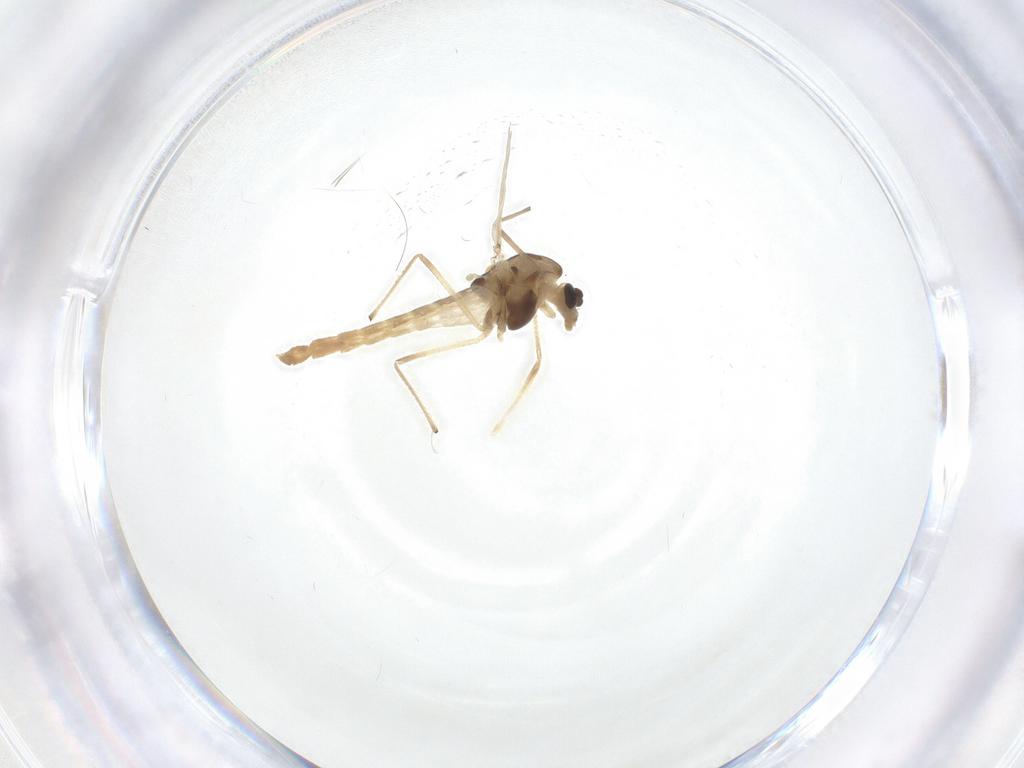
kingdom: Animalia
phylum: Arthropoda
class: Insecta
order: Diptera
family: Chironomidae
